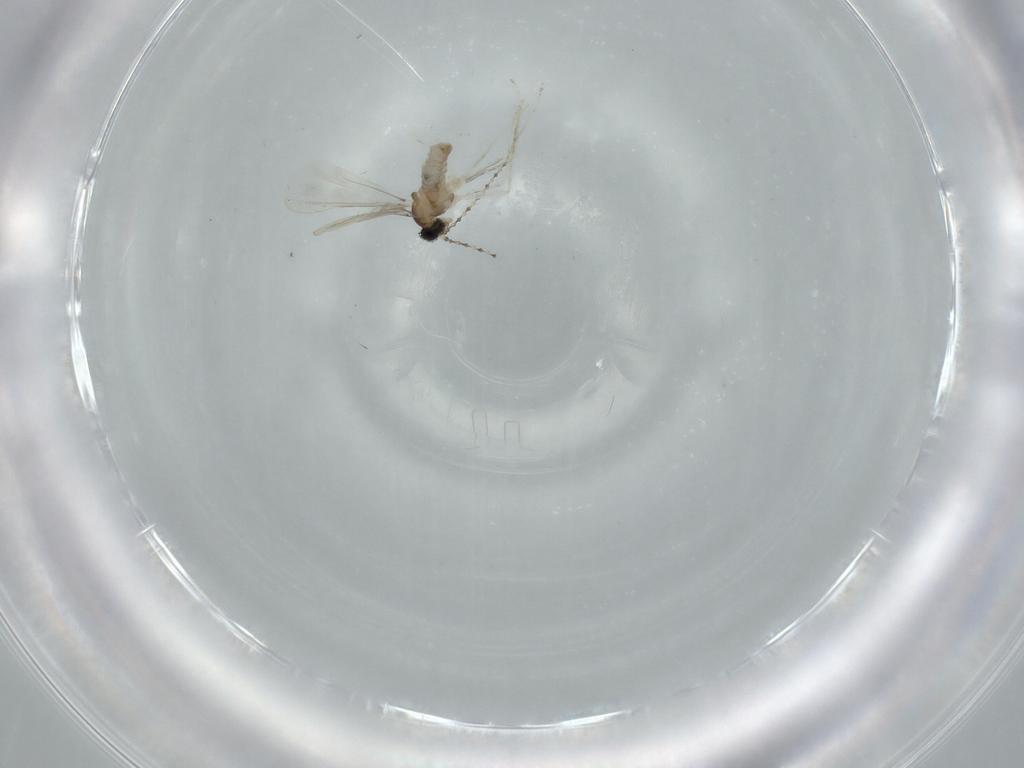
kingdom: Animalia
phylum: Arthropoda
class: Insecta
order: Diptera
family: Cecidomyiidae
